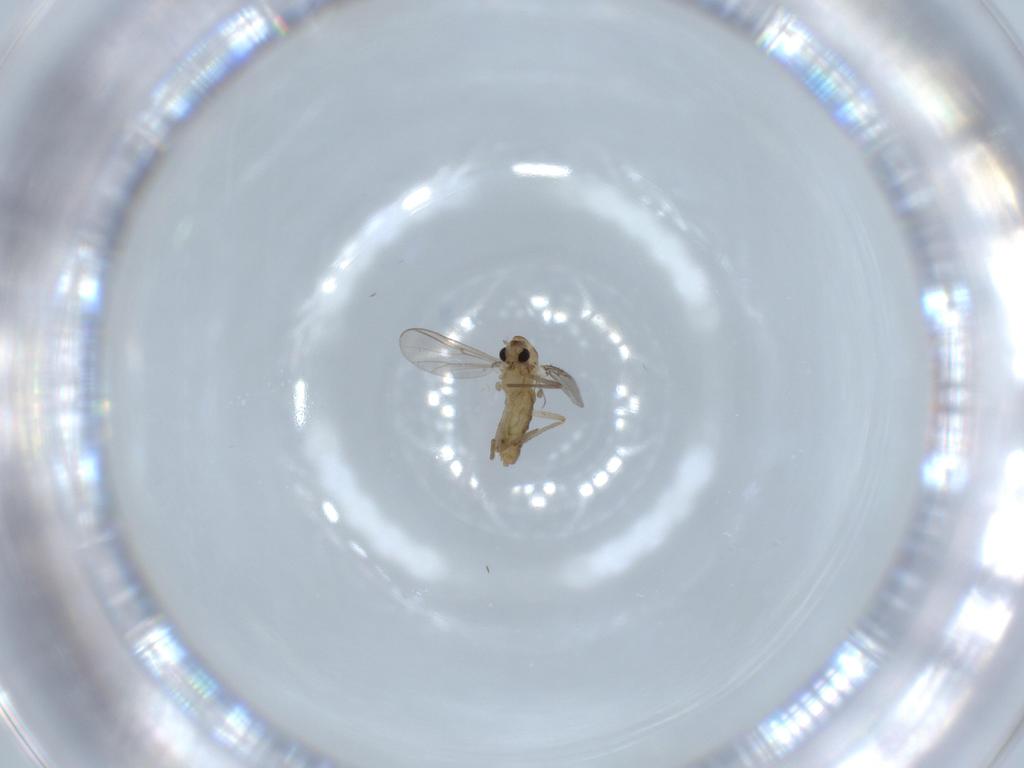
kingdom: Animalia
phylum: Arthropoda
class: Insecta
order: Diptera
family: Chironomidae
